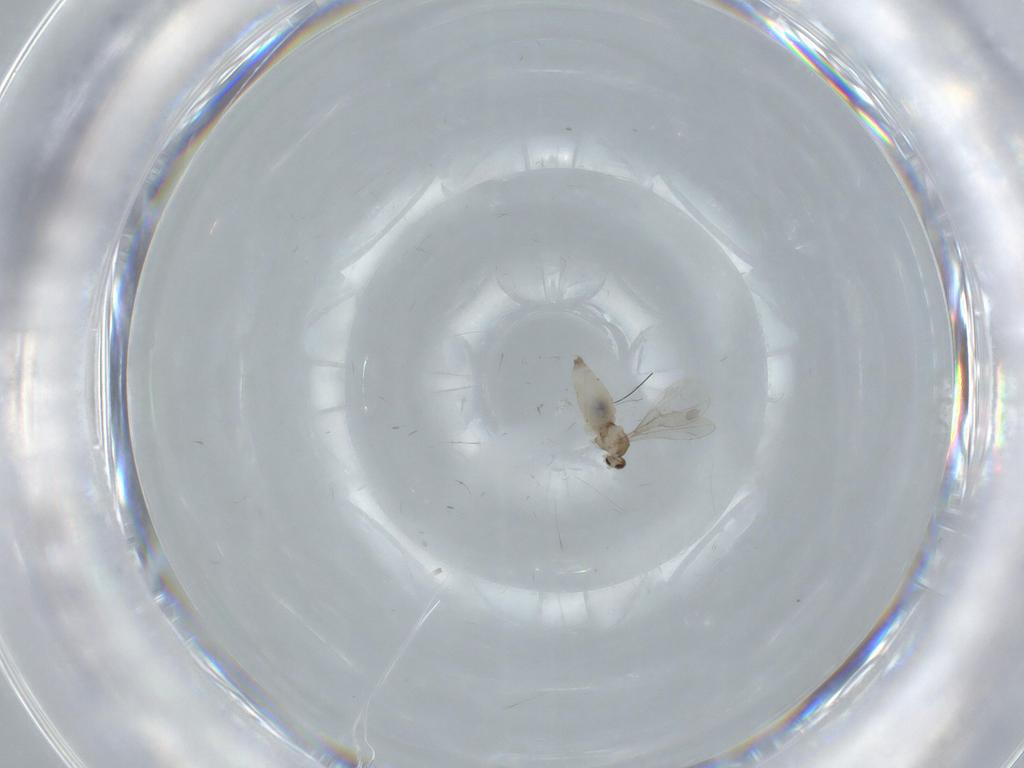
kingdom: Animalia
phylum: Arthropoda
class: Insecta
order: Diptera
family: Cecidomyiidae
